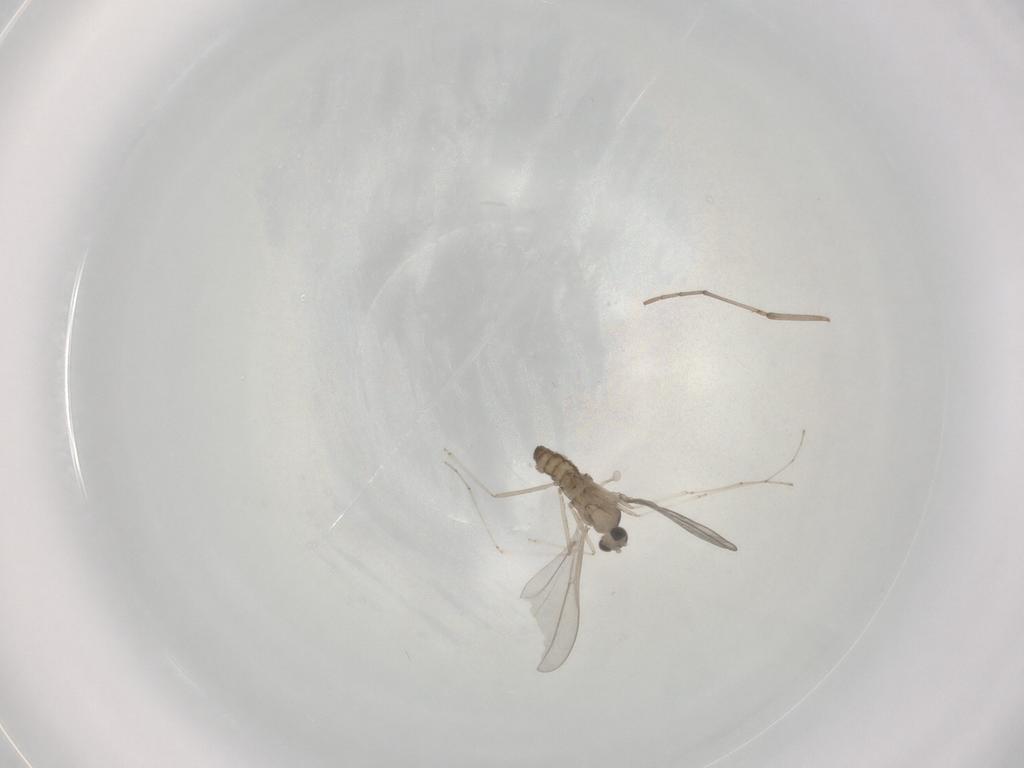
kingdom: Animalia
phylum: Arthropoda
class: Insecta
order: Diptera
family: Cecidomyiidae
